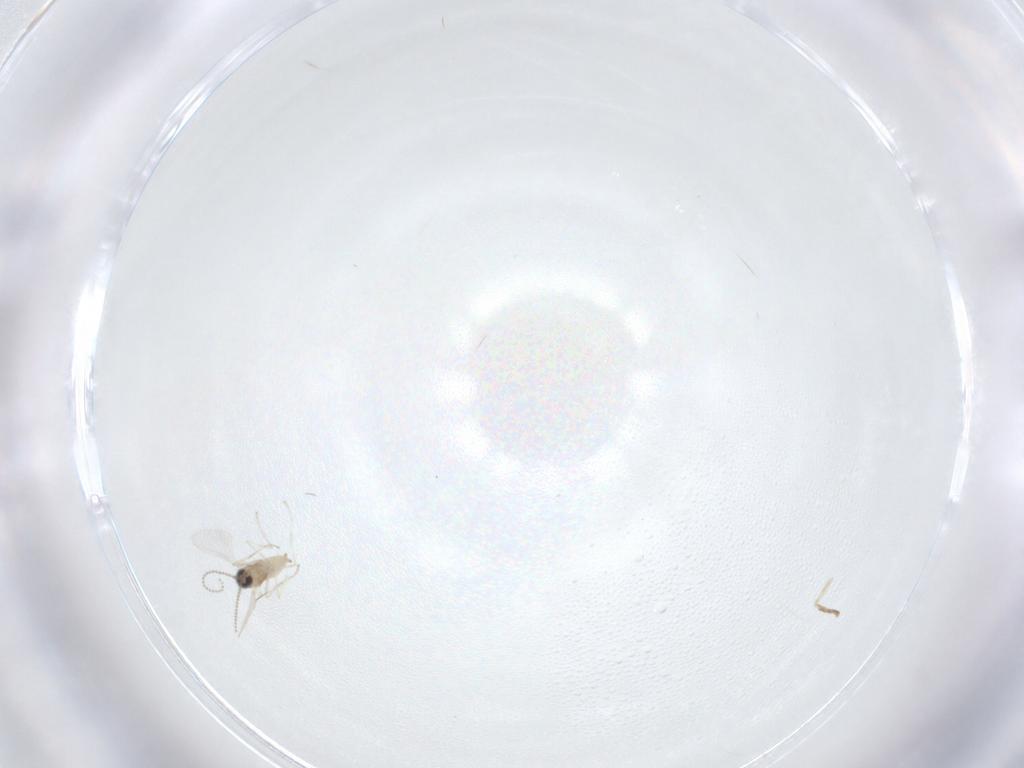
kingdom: Animalia
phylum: Arthropoda
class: Insecta
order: Diptera
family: Cecidomyiidae
